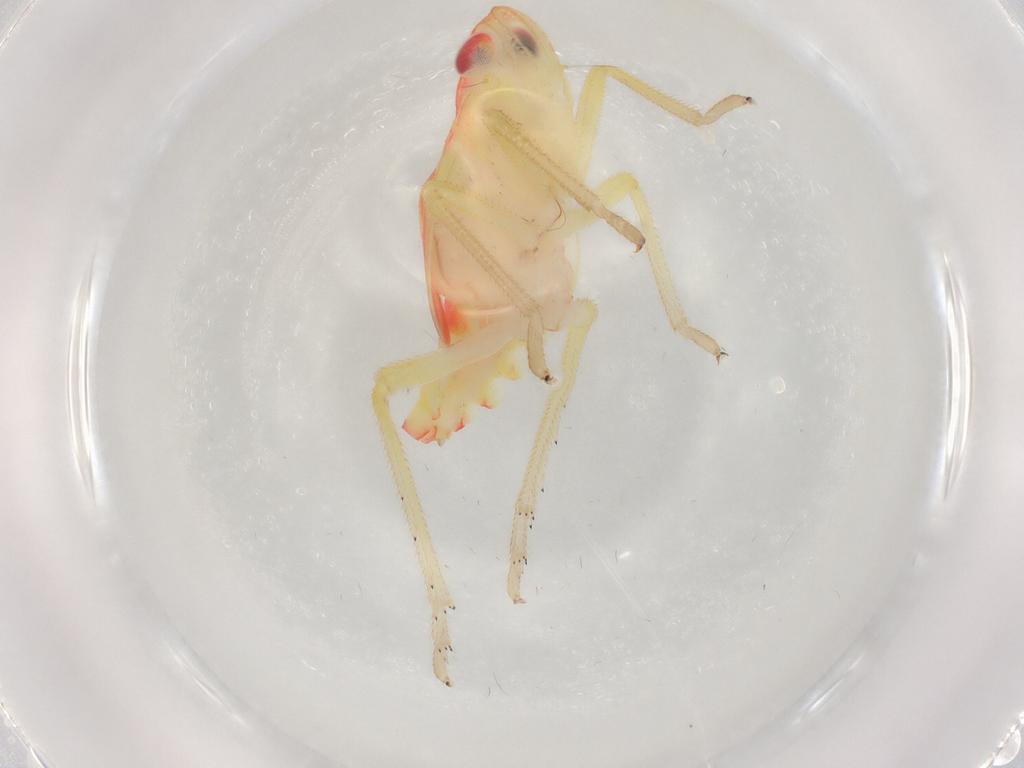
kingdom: Animalia
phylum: Arthropoda
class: Insecta
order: Hemiptera
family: Tropiduchidae
